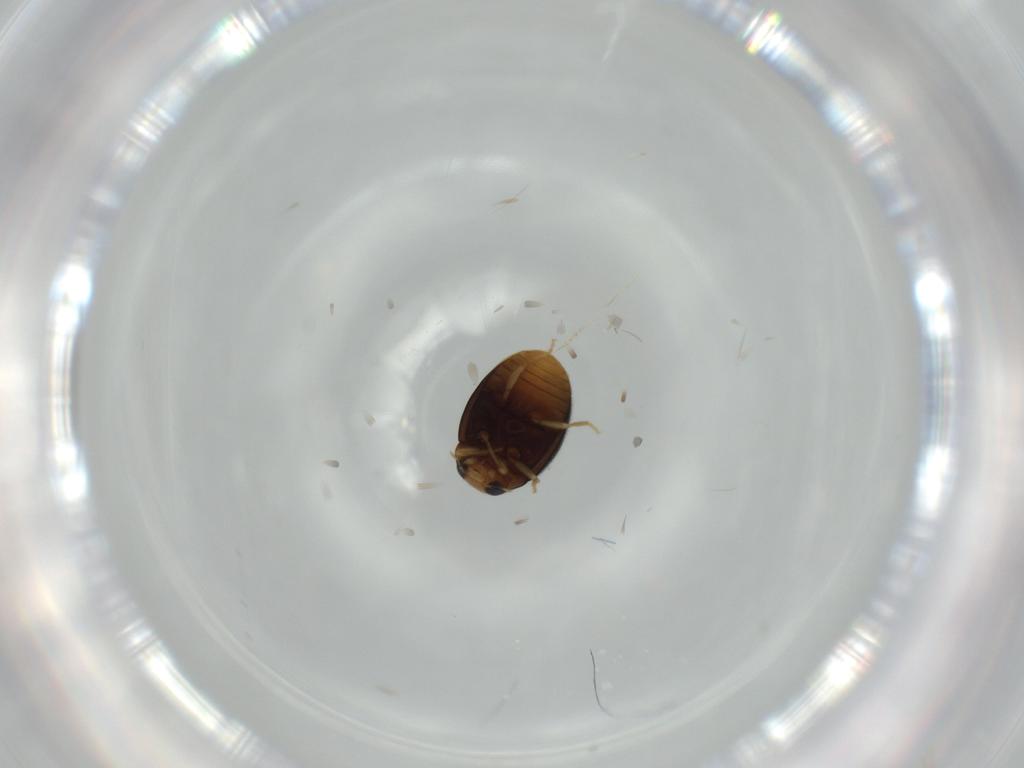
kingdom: Animalia
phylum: Arthropoda
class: Insecta
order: Coleoptera
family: Coccinellidae
